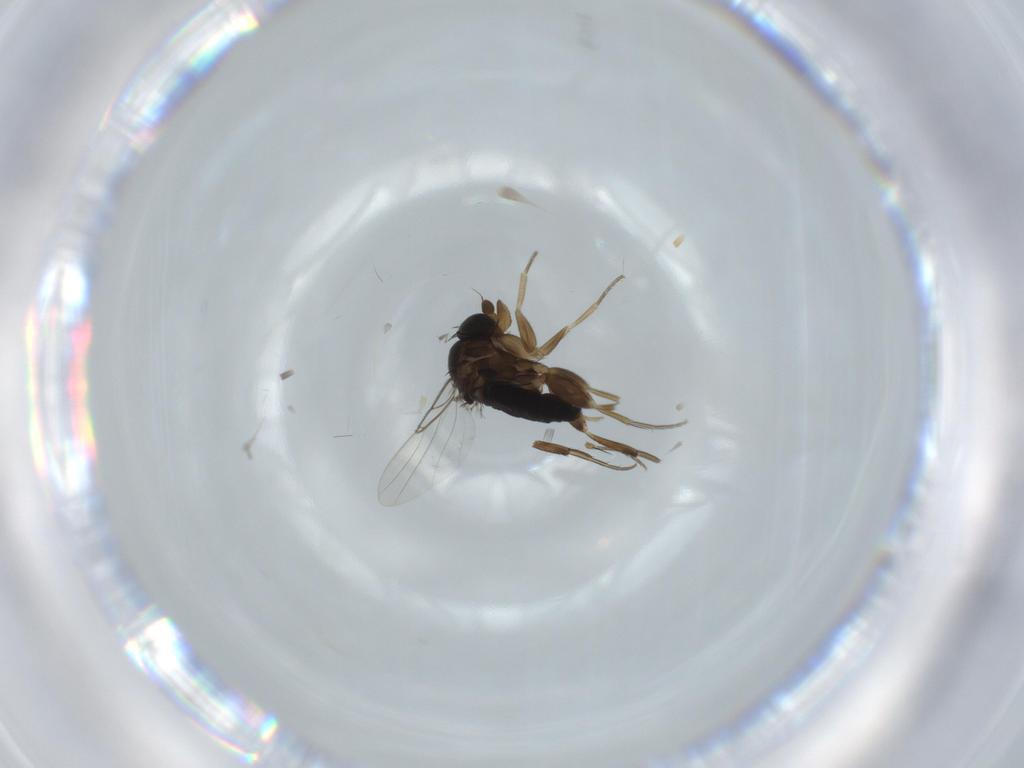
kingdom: Animalia
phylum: Arthropoda
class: Insecta
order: Diptera
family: Phoridae
